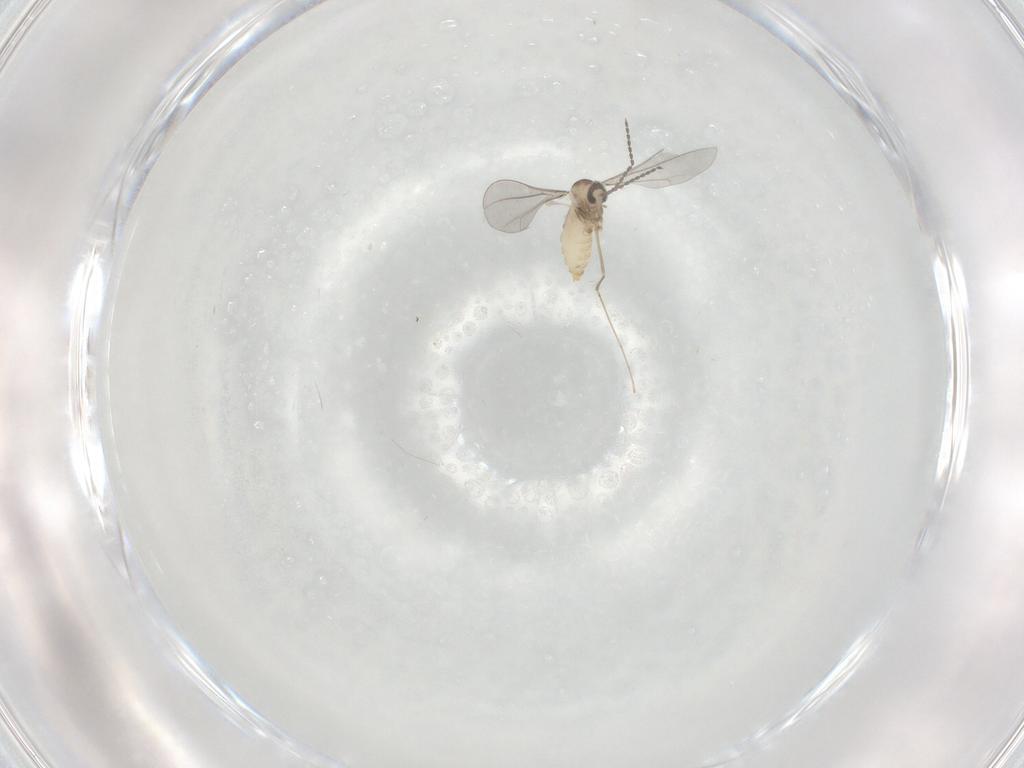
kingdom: Animalia
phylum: Arthropoda
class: Insecta
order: Diptera
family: Cecidomyiidae
